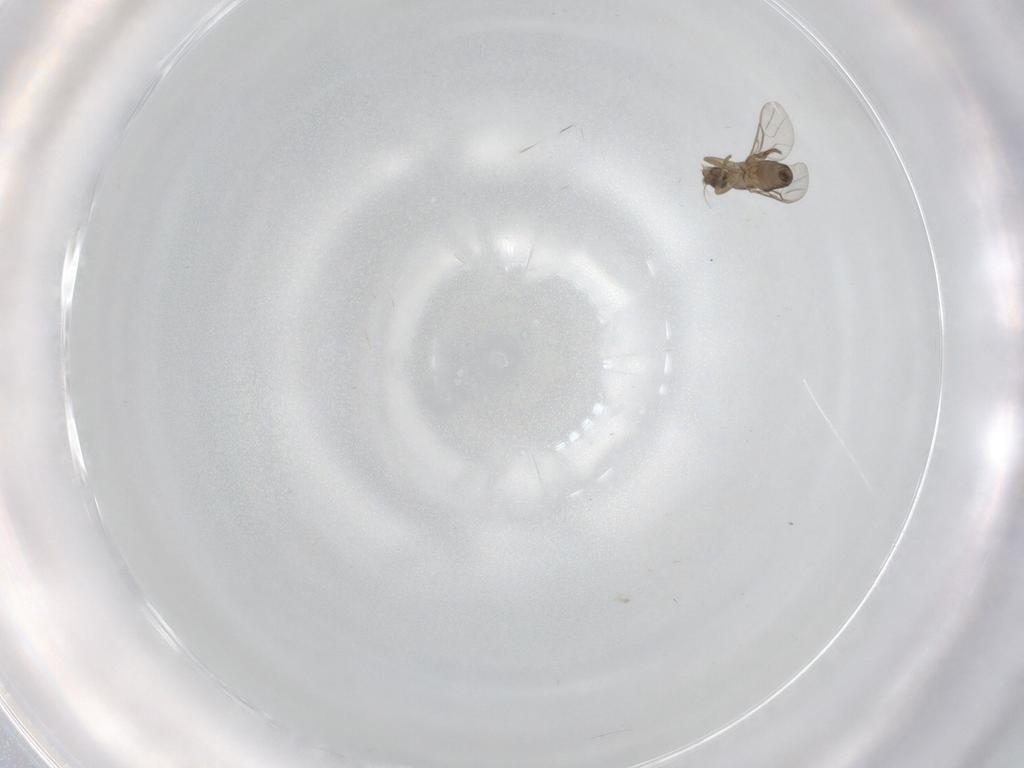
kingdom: Animalia
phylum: Arthropoda
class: Insecta
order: Diptera
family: Psychodidae
